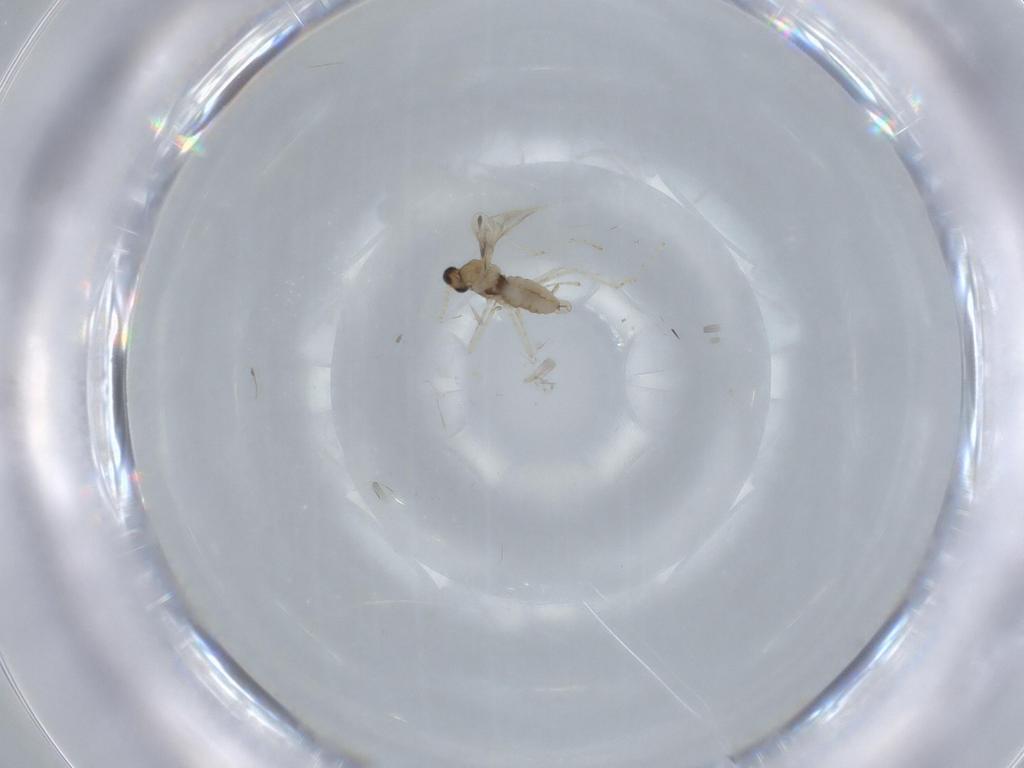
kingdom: Animalia
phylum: Arthropoda
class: Insecta
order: Diptera
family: Cecidomyiidae
